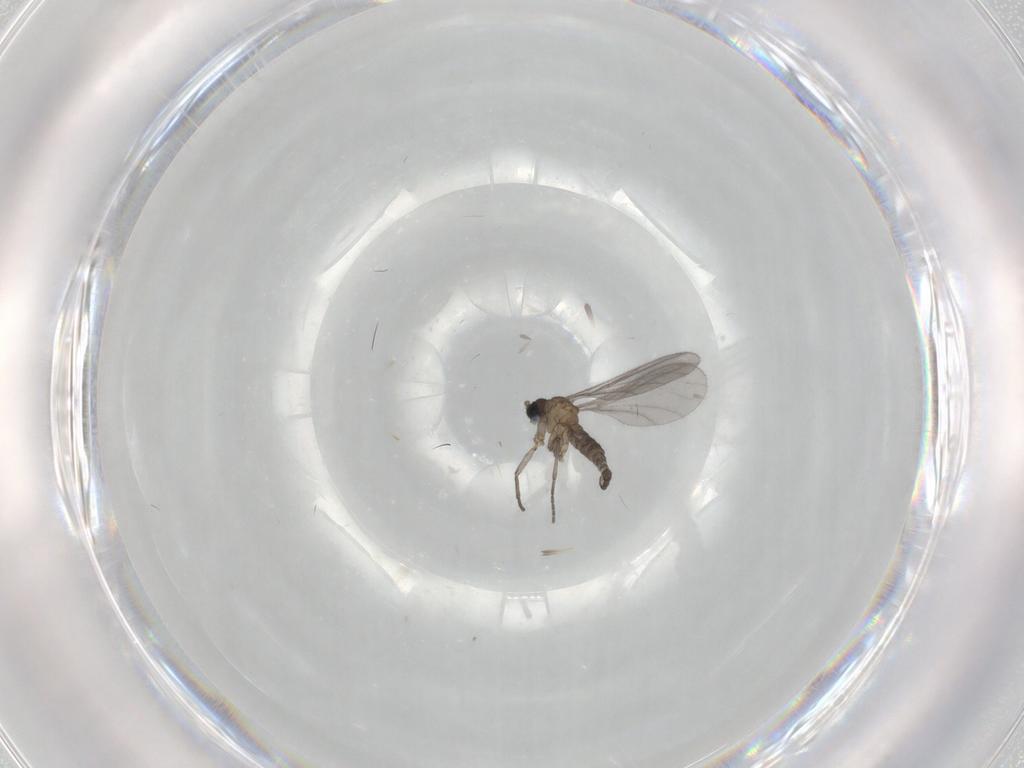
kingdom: Animalia
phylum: Arthropoda
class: Insecta
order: Diptera
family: Sciaridae
